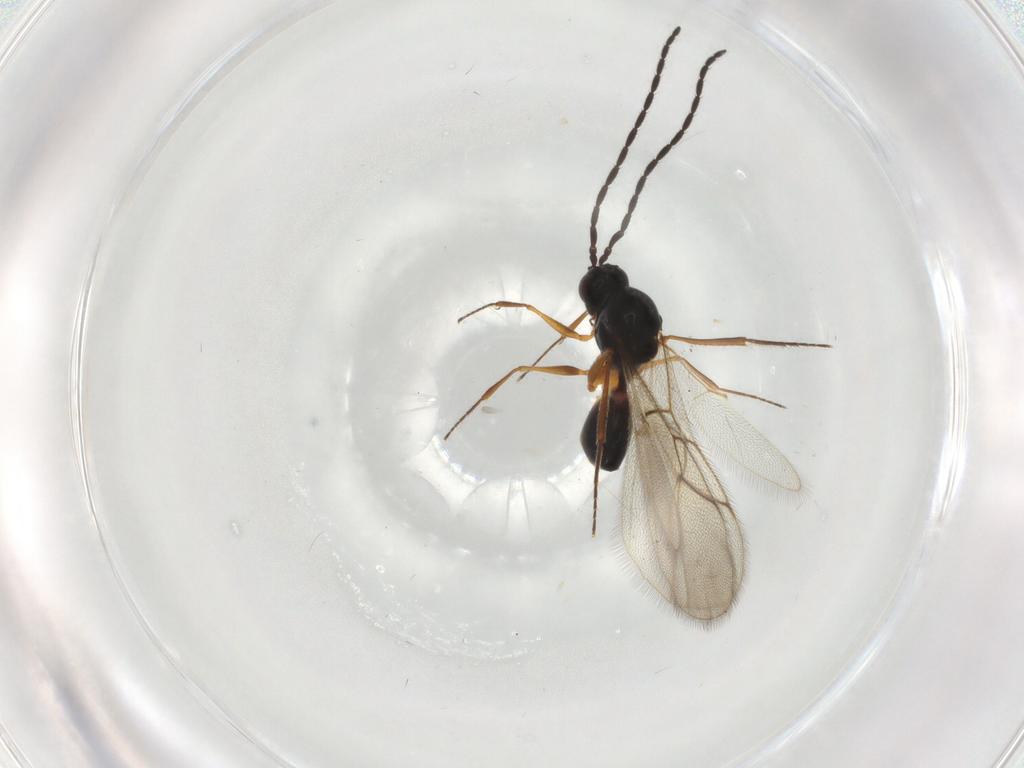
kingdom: Animalia
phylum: Arthropoda
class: Insecta
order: Hymenoptera
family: Figitidae
